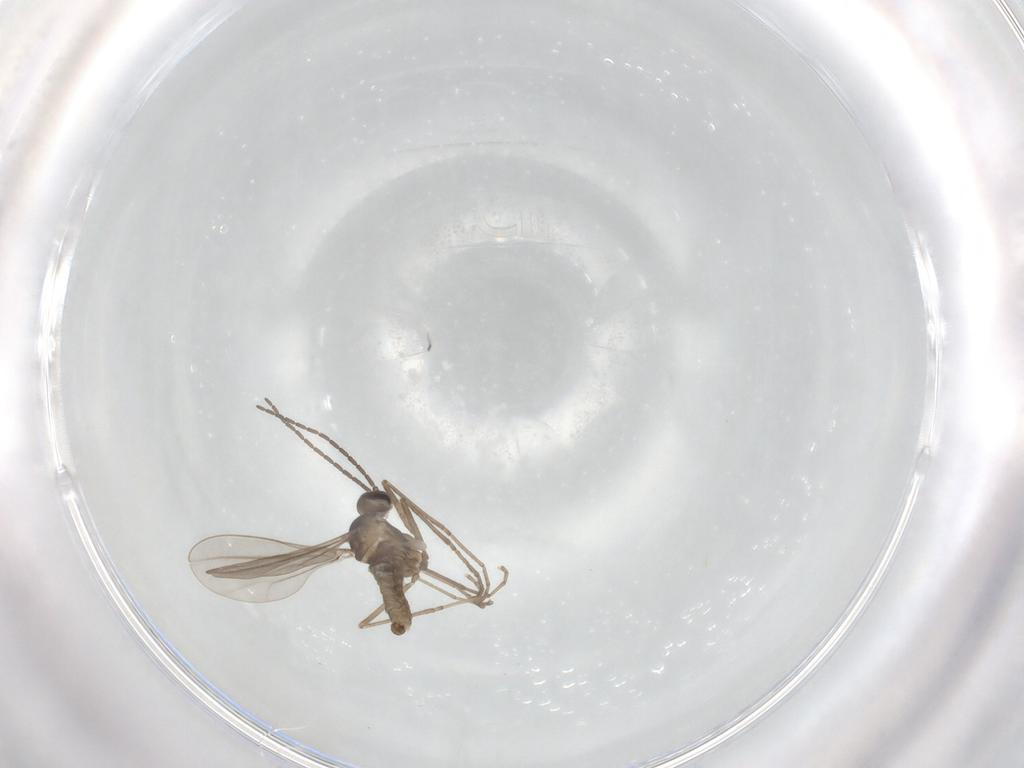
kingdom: Animalia
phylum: Arthropoda
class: Insecta
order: Diptera
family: Cecidomyiidae
